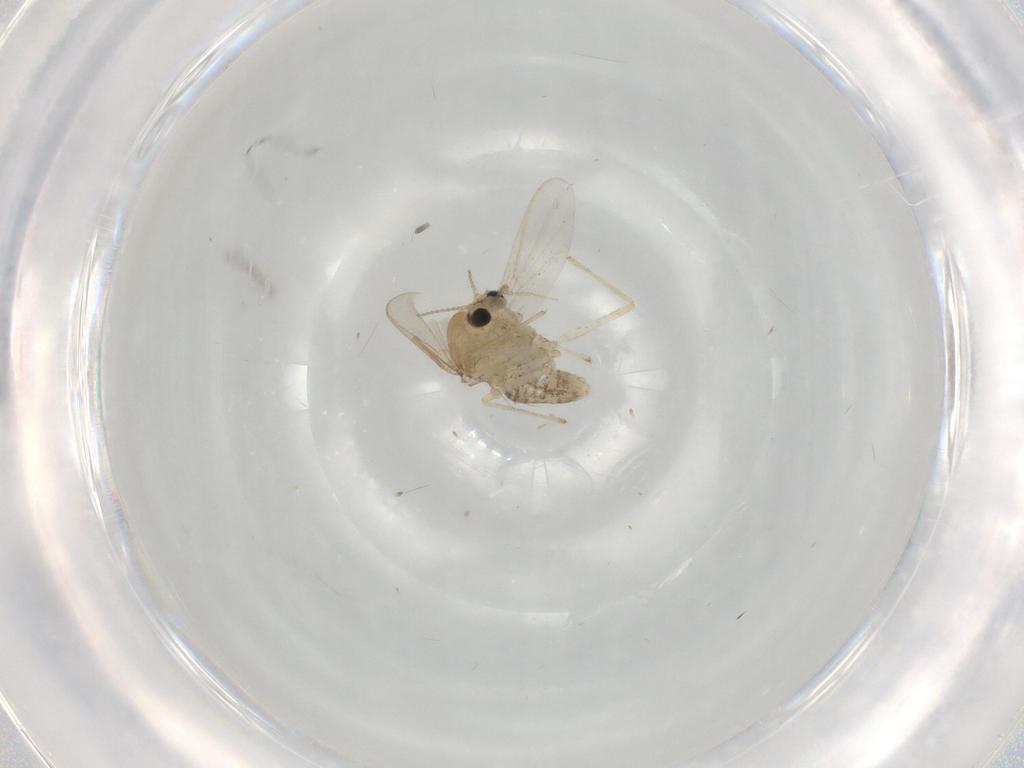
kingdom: Animalia
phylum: Arthropoda
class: Insecta
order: Diptera
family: Chironomidae
